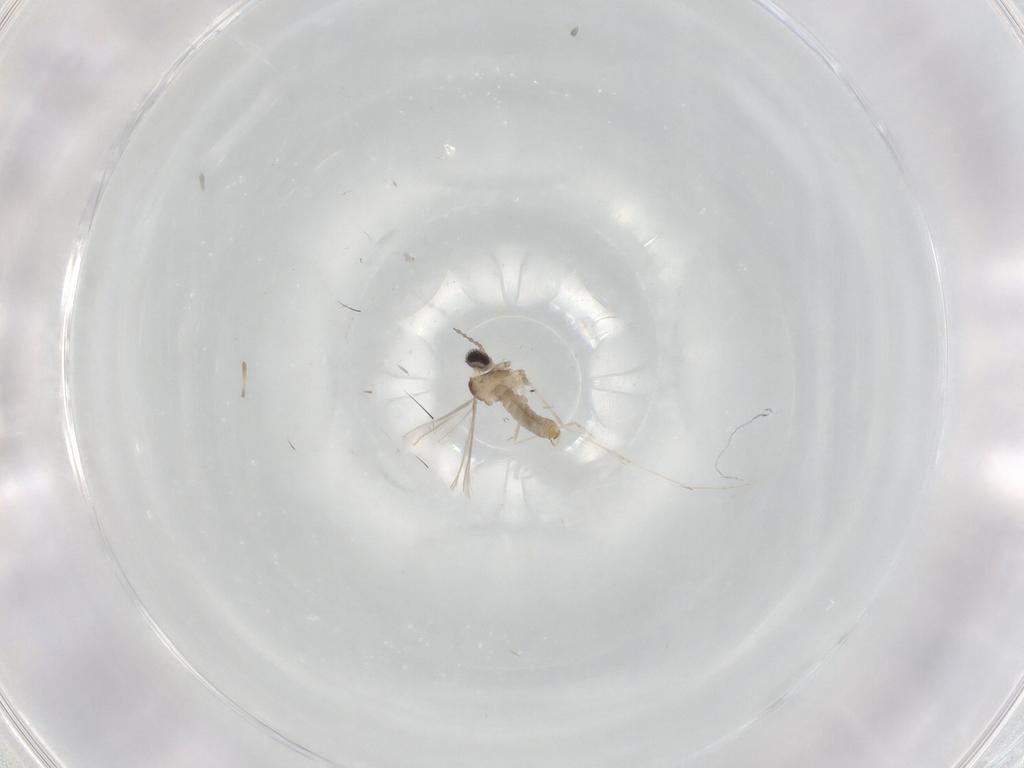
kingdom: Animalia
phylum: Arthropoda
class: Insecta
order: Diptera
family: Cecidomyiidae
